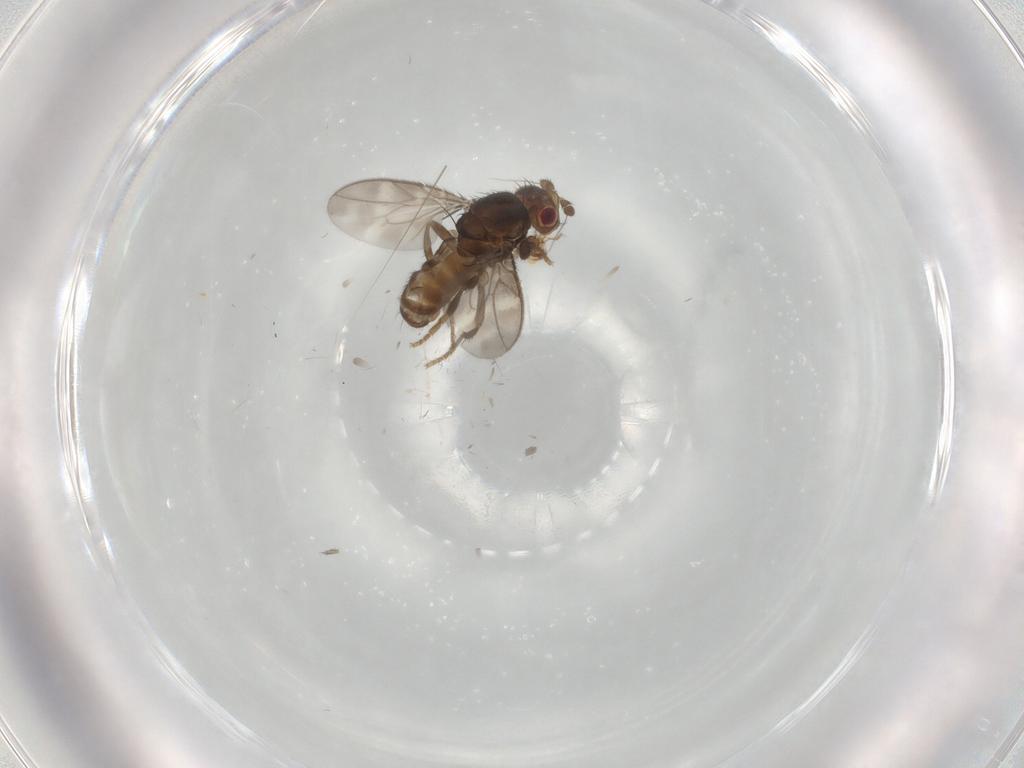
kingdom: Animalia
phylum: Arthropoda
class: Insecta
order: Diptera
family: Sphaeroceridae
